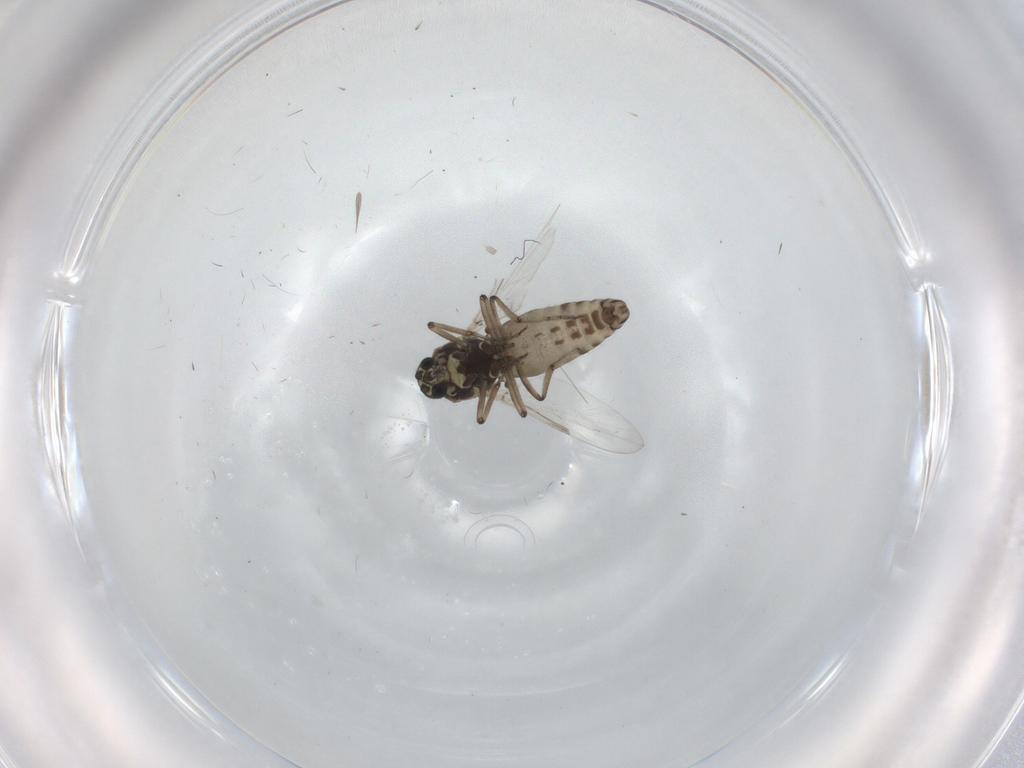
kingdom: Animalia
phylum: Arthropoda
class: Insecta
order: Diptera
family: Ceratopogonidae
